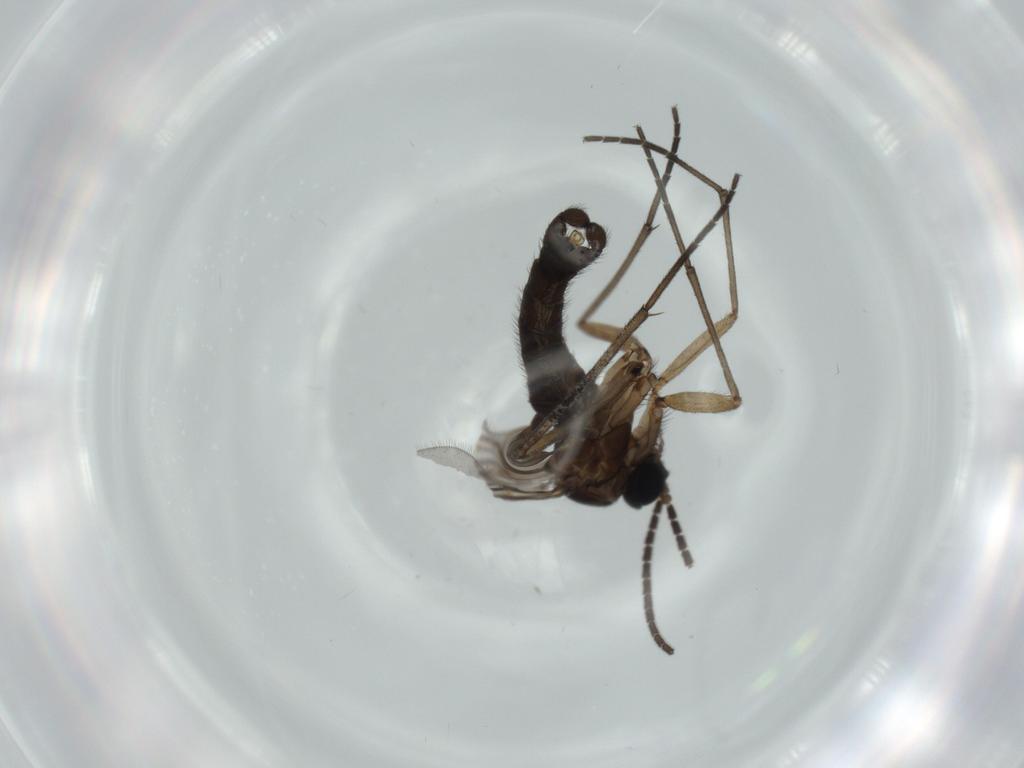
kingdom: Animalia
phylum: Arthropoda
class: Insecta
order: Diptera
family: Sciaridae
